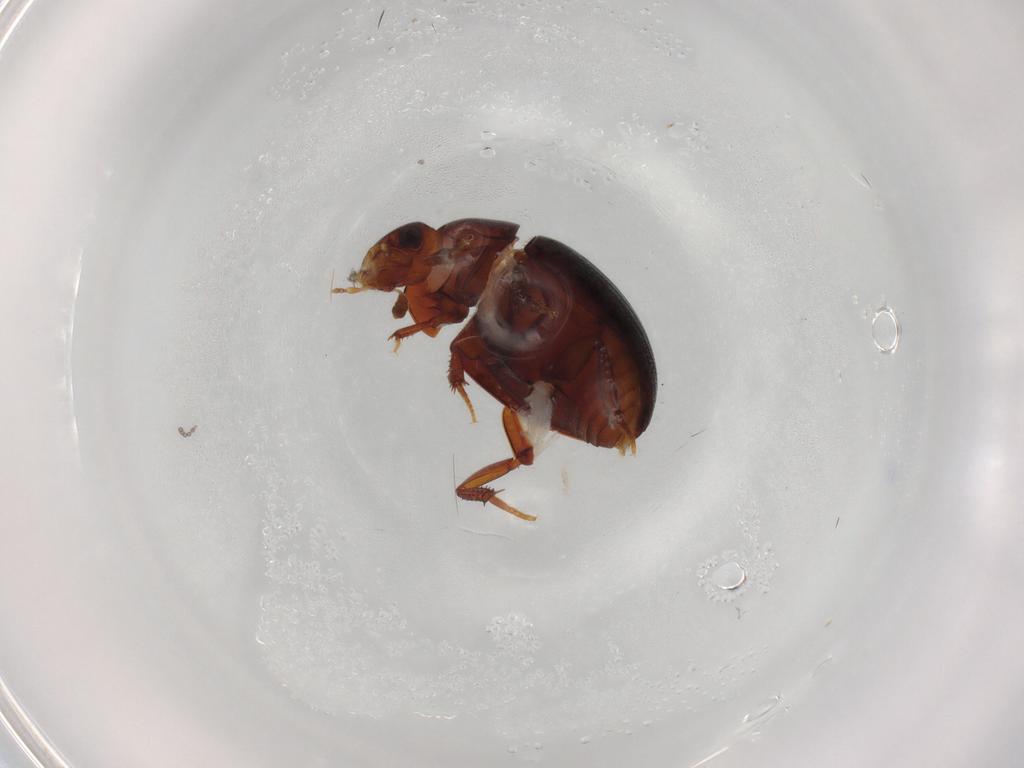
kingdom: Animalia
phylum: Arthropoda
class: Insecta
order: Coleoptera
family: Hydrophilidae
